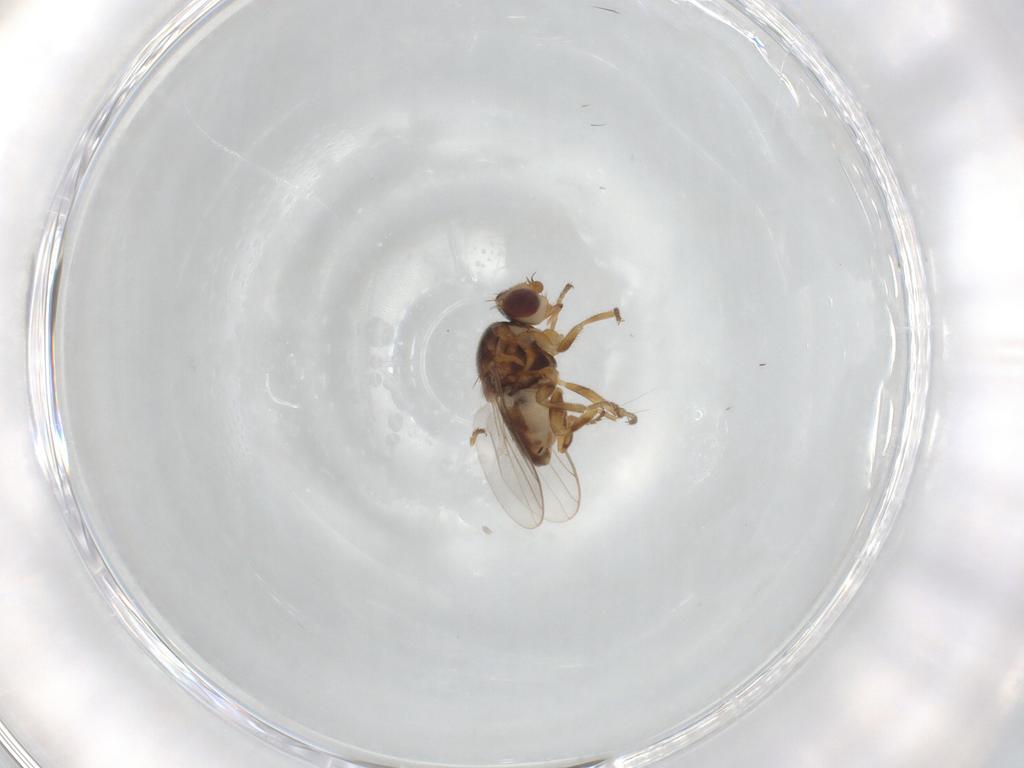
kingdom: Animalia
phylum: Arthropoda
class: Insecta
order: Diptera
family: Chloropidae
